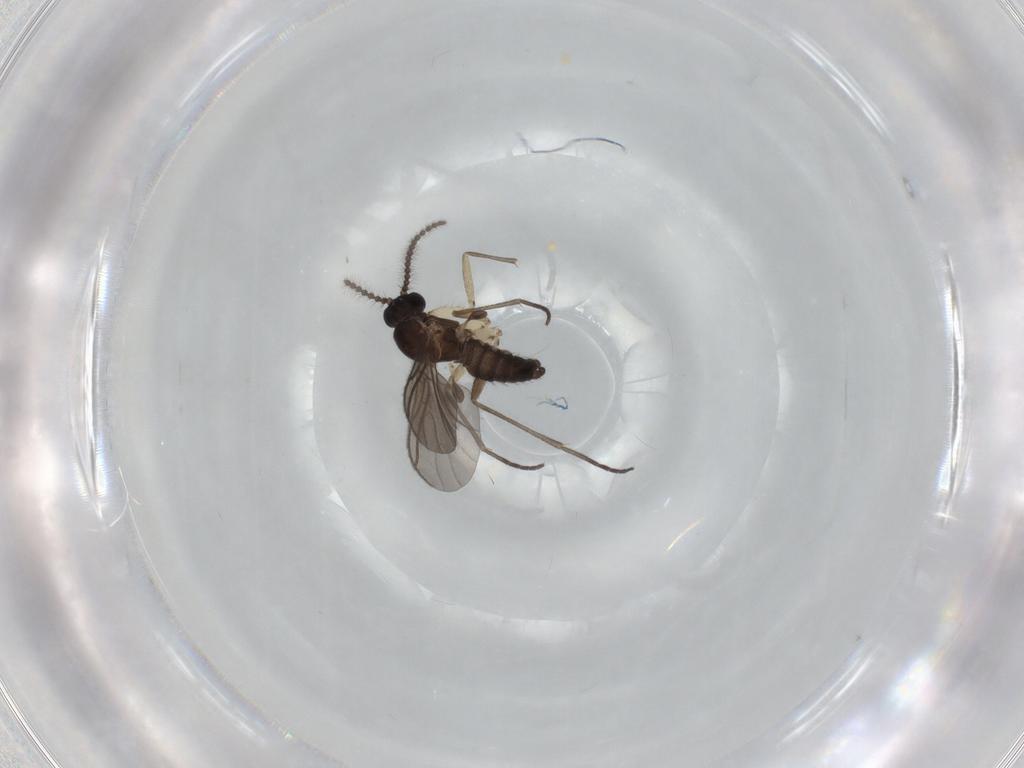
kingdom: Animalia
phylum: Arthropoda
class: Insecta
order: Diptera
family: Sciaridae
